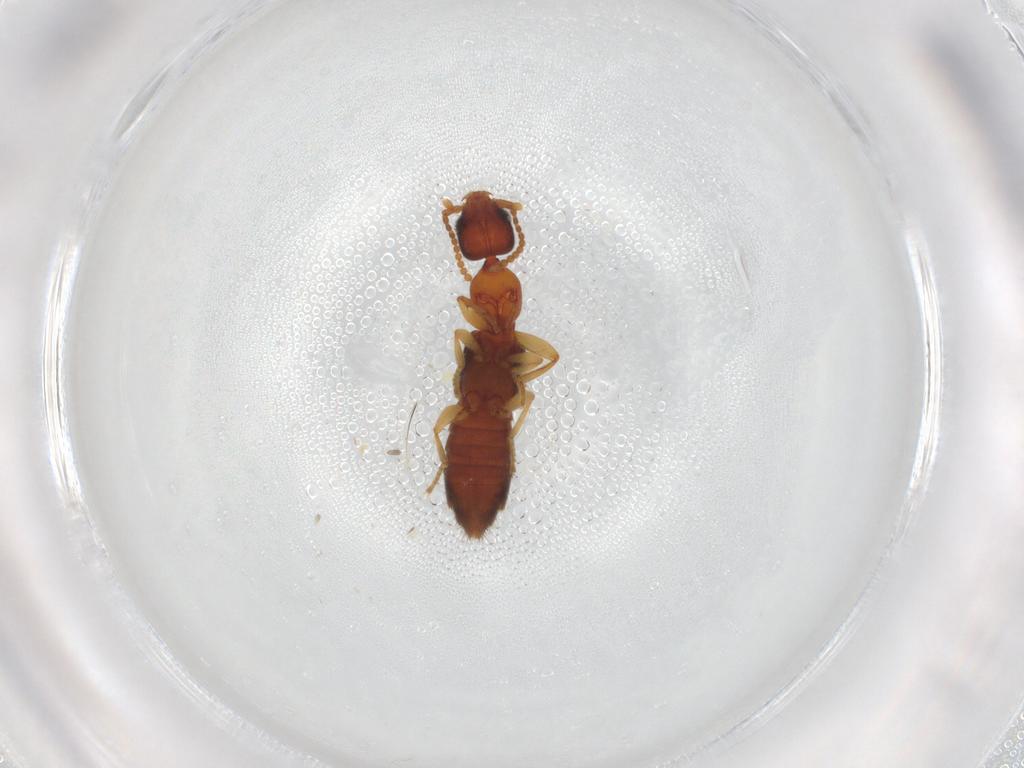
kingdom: Animalia
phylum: Arthropoda
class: Insecta
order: Coleoptera
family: Staphylinidae
